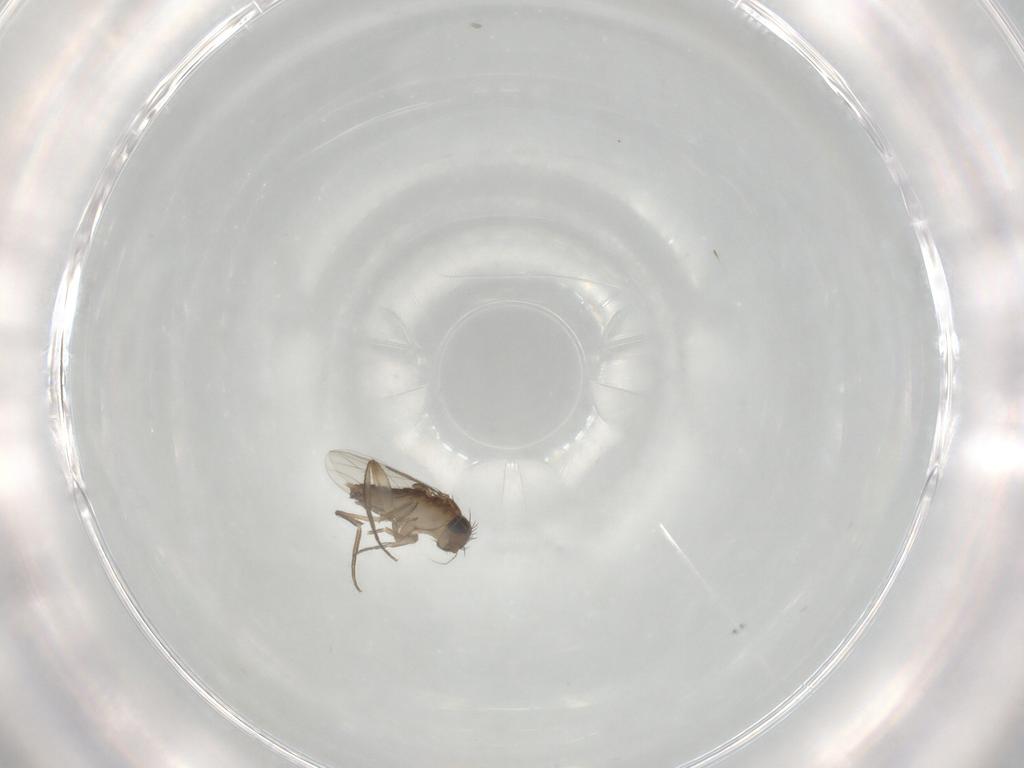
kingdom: Animalia
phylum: Arthropoda
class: Insecta
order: Diptera
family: Phoridae
